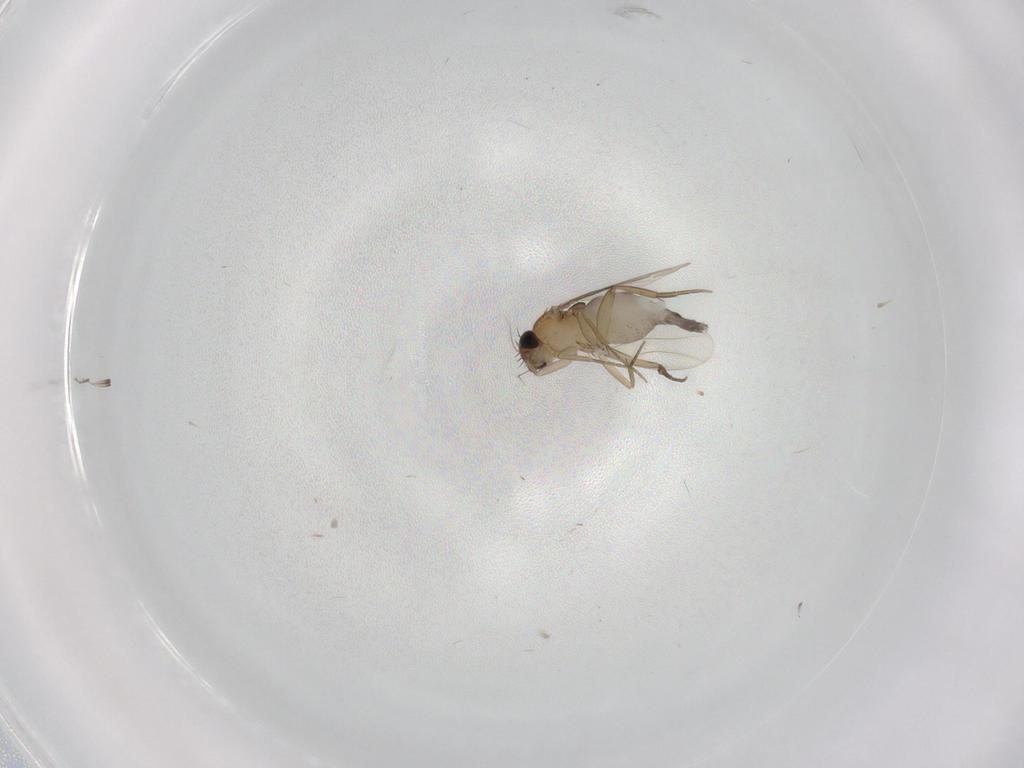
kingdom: Animalia
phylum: Arthropoda
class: Insecta
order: Diptera
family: Phoridae
